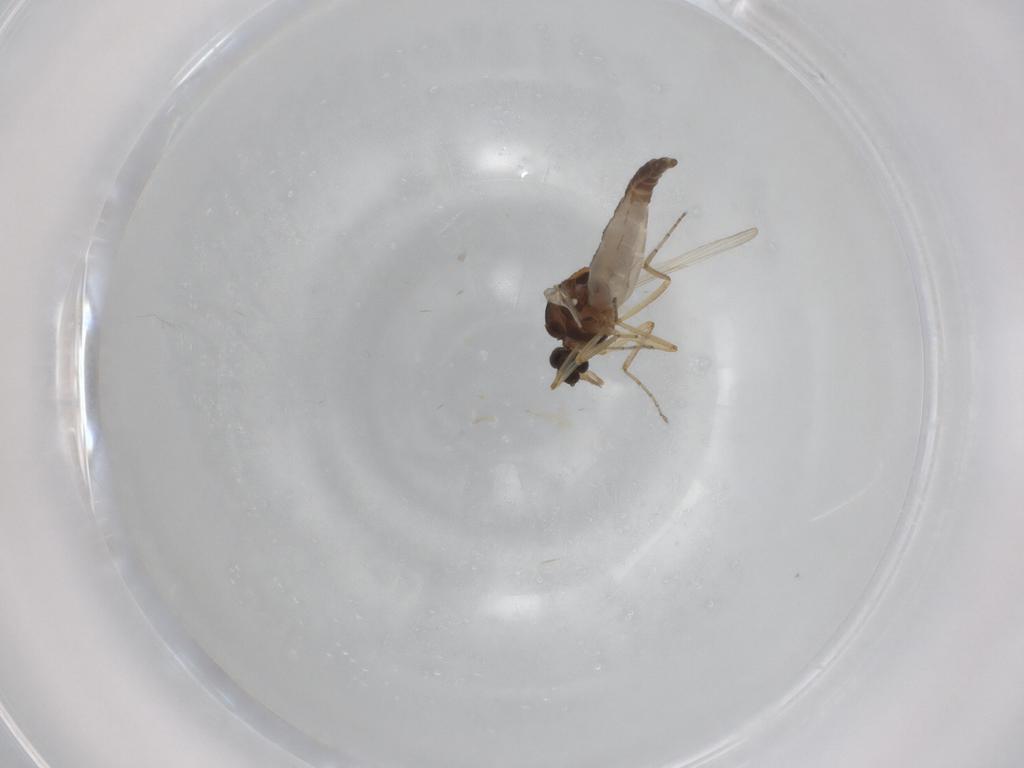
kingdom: Animalia
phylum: Arthropoda
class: Insecta
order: Diptera
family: Ceratopogonidae
